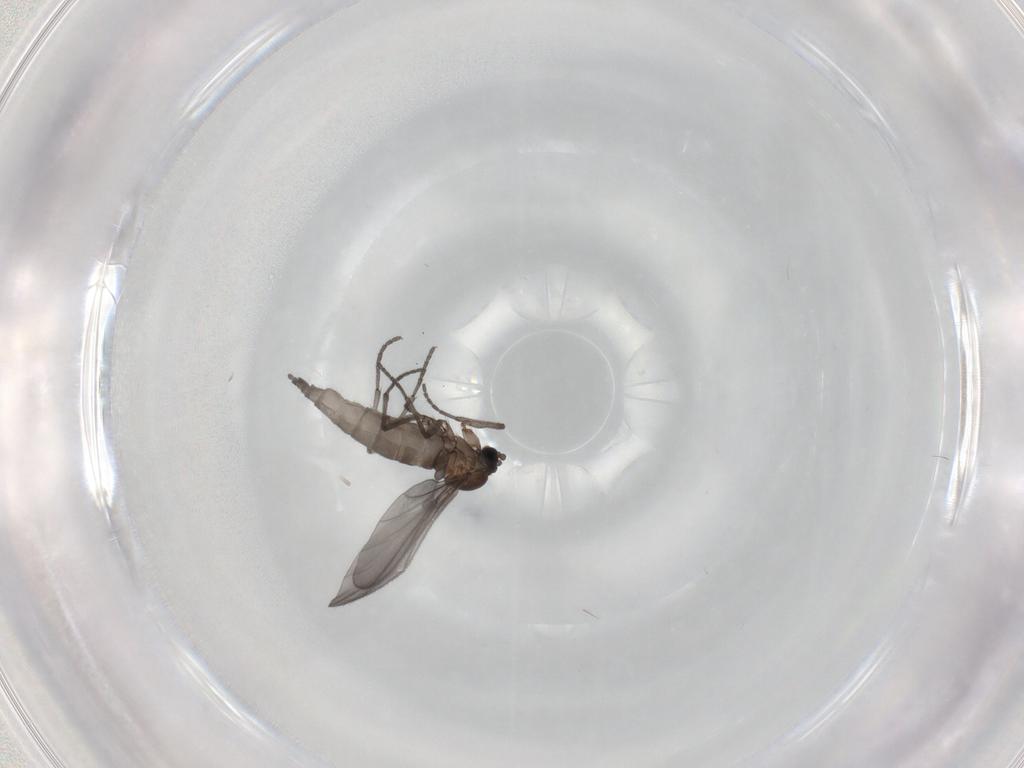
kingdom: Animalia
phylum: Arthropoda
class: Insecta
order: Diptera
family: Sciaridae
